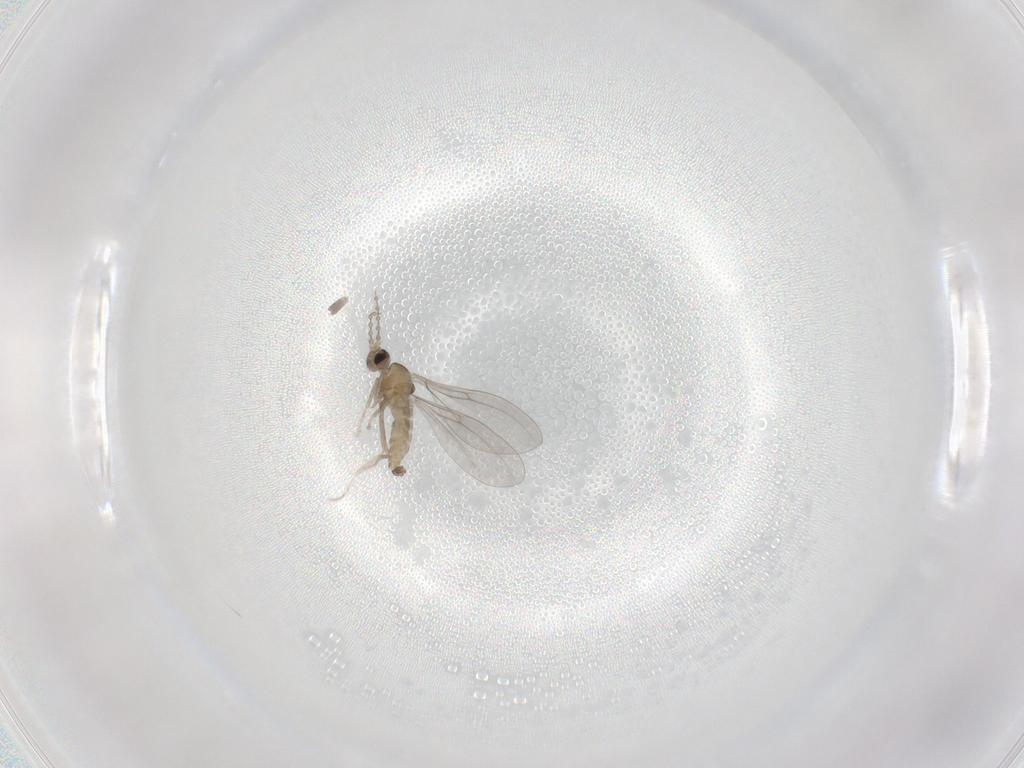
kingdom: Animalia
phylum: Arthropoda
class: Insecta
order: Diptera
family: Cecidomyiidae
